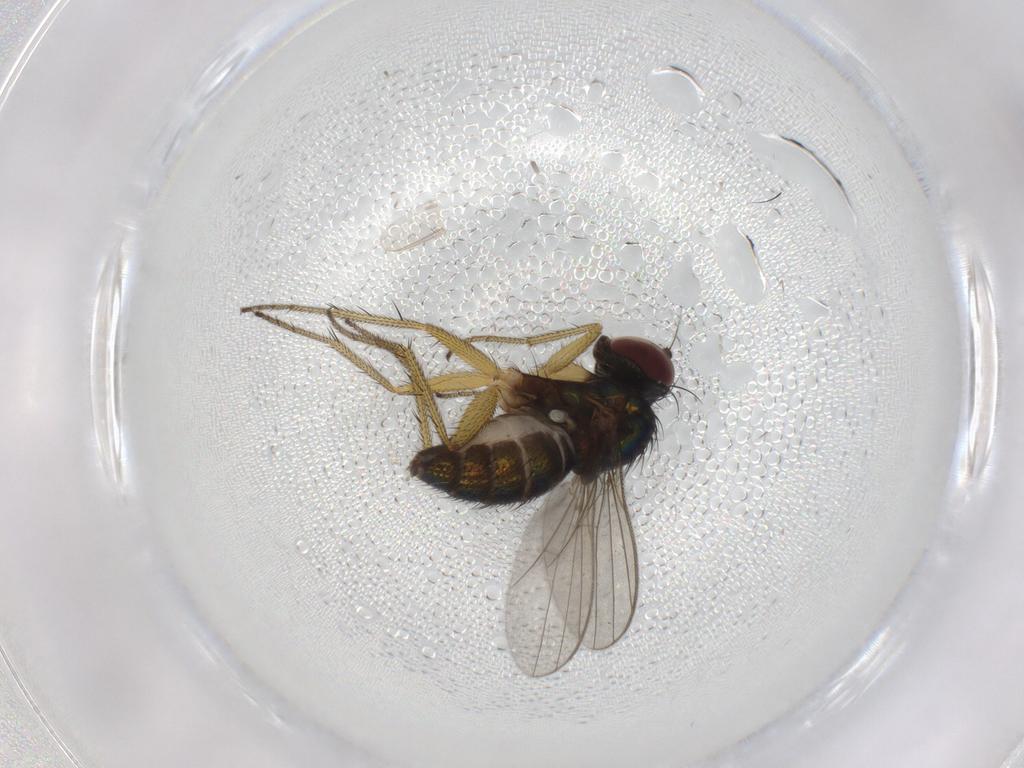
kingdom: Animalia
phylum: Arthropoda
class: Insecta
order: Diptera
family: Dolichopodidae
